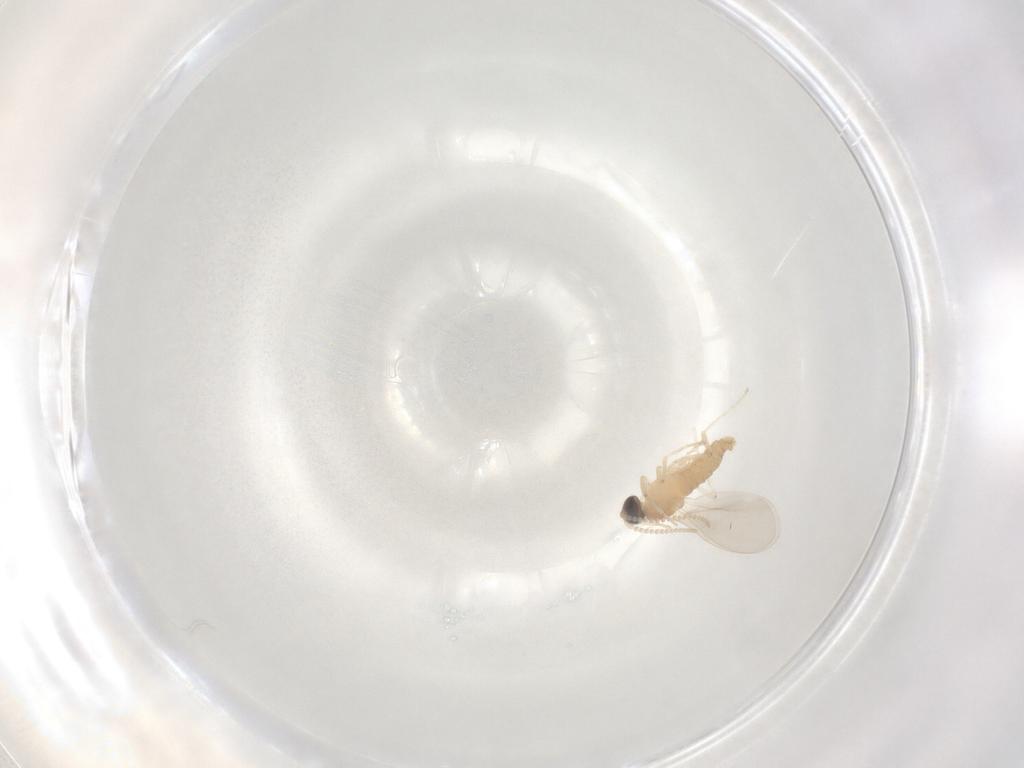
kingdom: Animalia
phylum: Arthropoda
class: Insecta
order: Diptera
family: Cecidomyiidae
